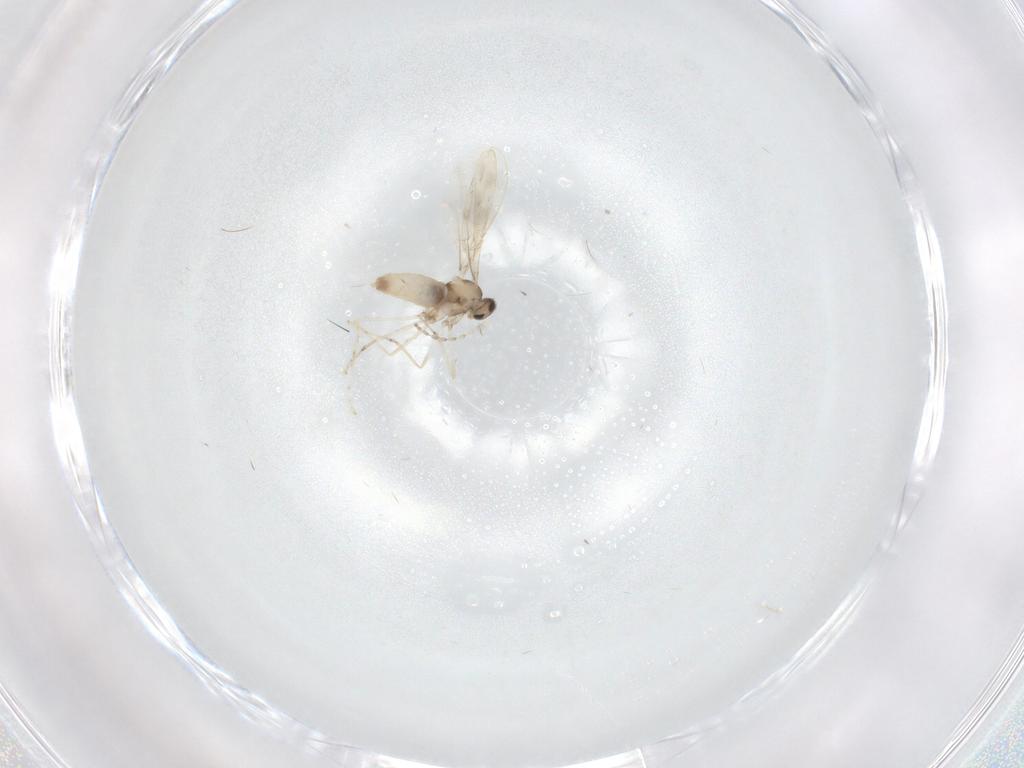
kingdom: Animalia
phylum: Arthropoda
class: Insecta
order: Diptera
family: Cecidomyiidae
